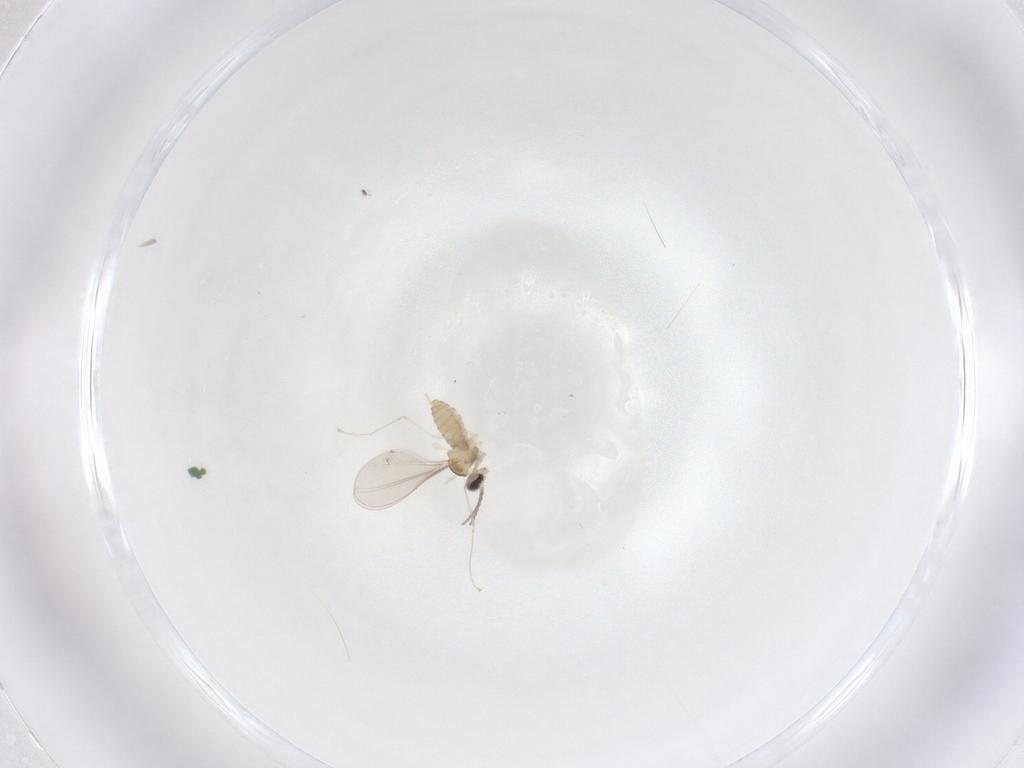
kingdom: Animalia
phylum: Arthropoda
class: Insecta
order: Diptera
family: Cecidomyiidae
